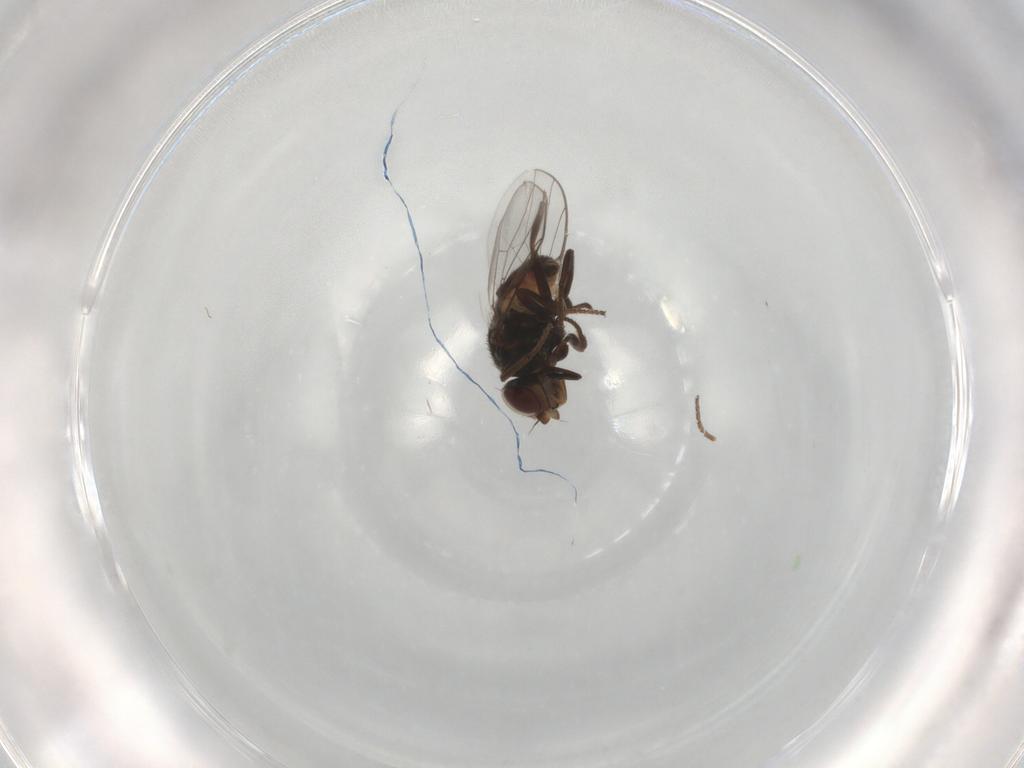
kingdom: Animalia
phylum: Arthropoda
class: Insecta
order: Diptera
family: Chloropidae
